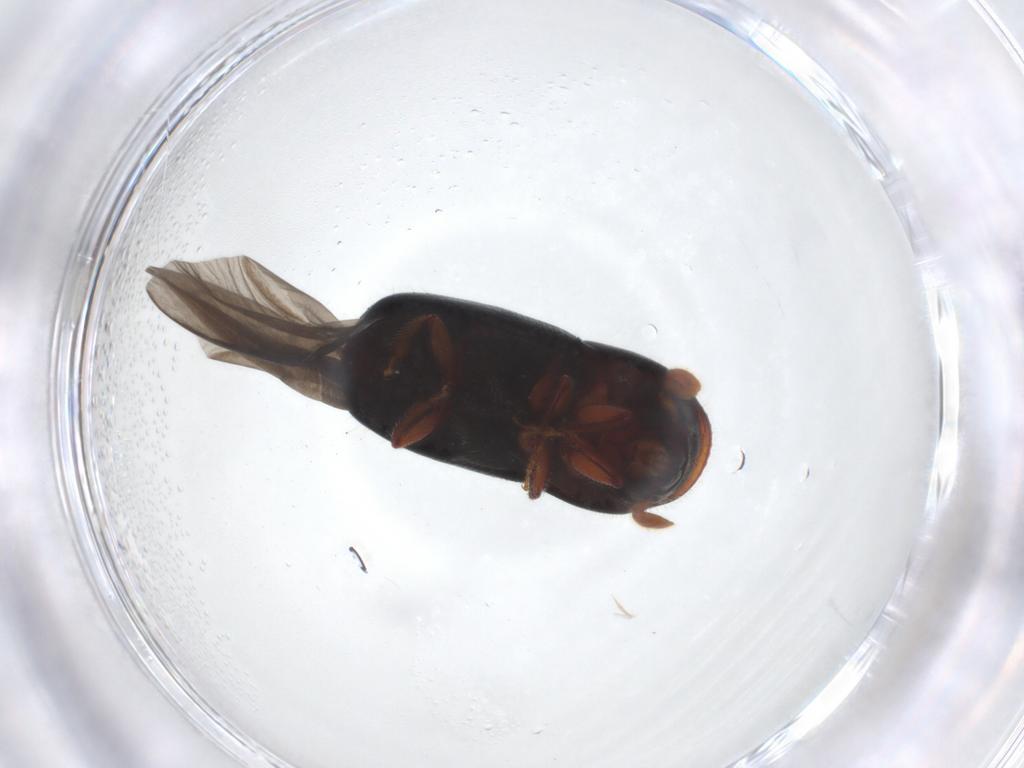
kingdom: Animalia
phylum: Arthropoda
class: Insecta
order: Coleoptera
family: Curculionidae
